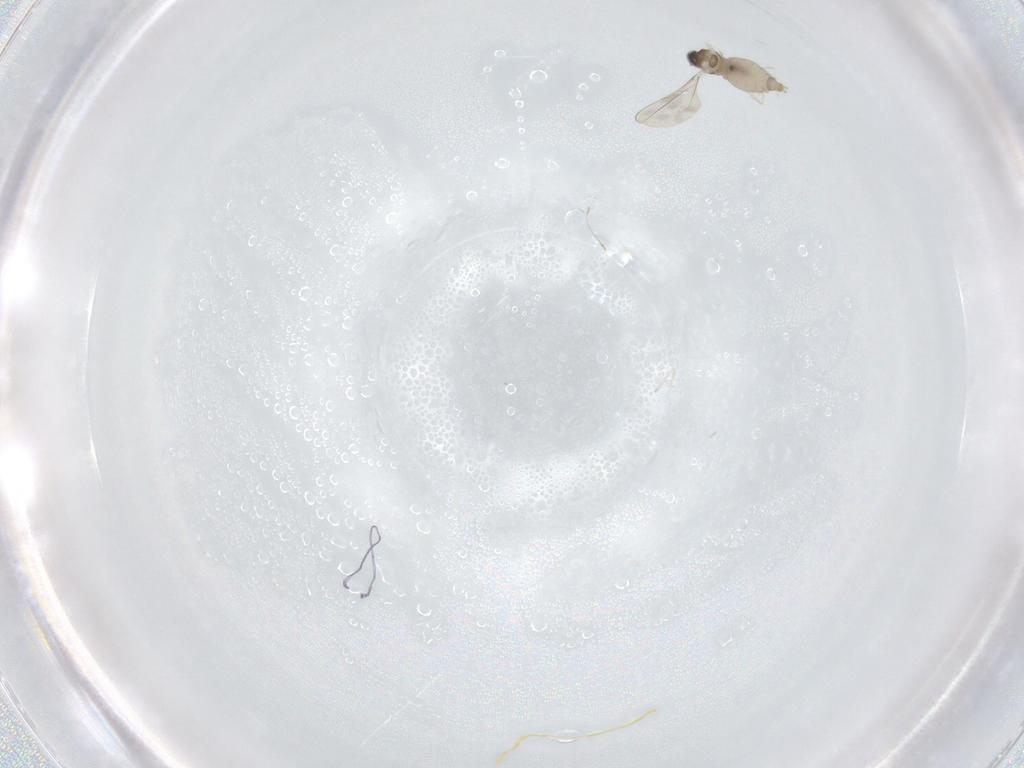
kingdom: Animalia
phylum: Arthropoda
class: Insecta
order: Diptera
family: Cecidomyiidae
